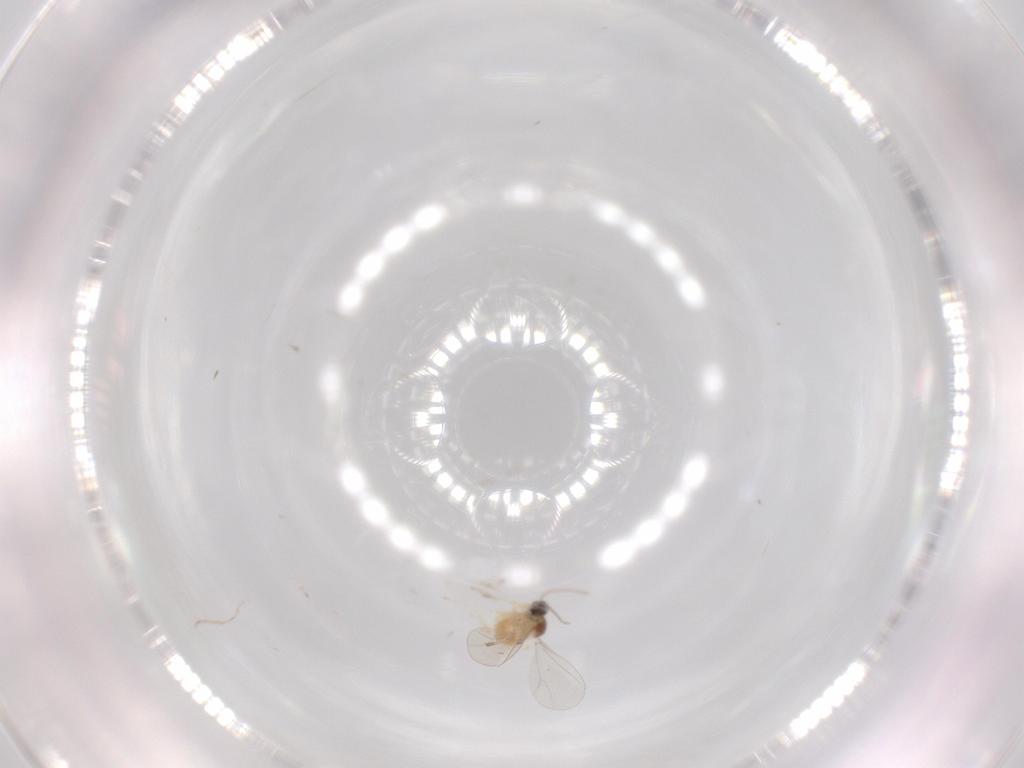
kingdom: Animalia
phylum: Arthropoda
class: Insecta
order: Diptera
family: Cecidomyiidae
